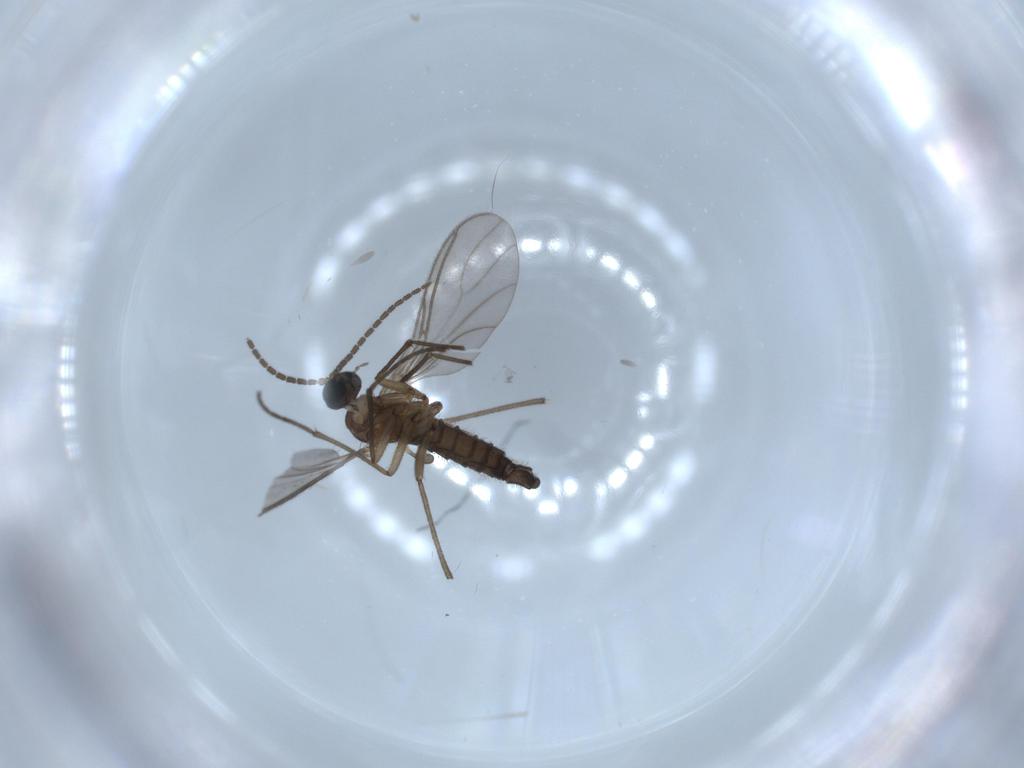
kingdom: Animalia
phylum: Arthropoda
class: Insecta
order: Diptera
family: Sciaridae
